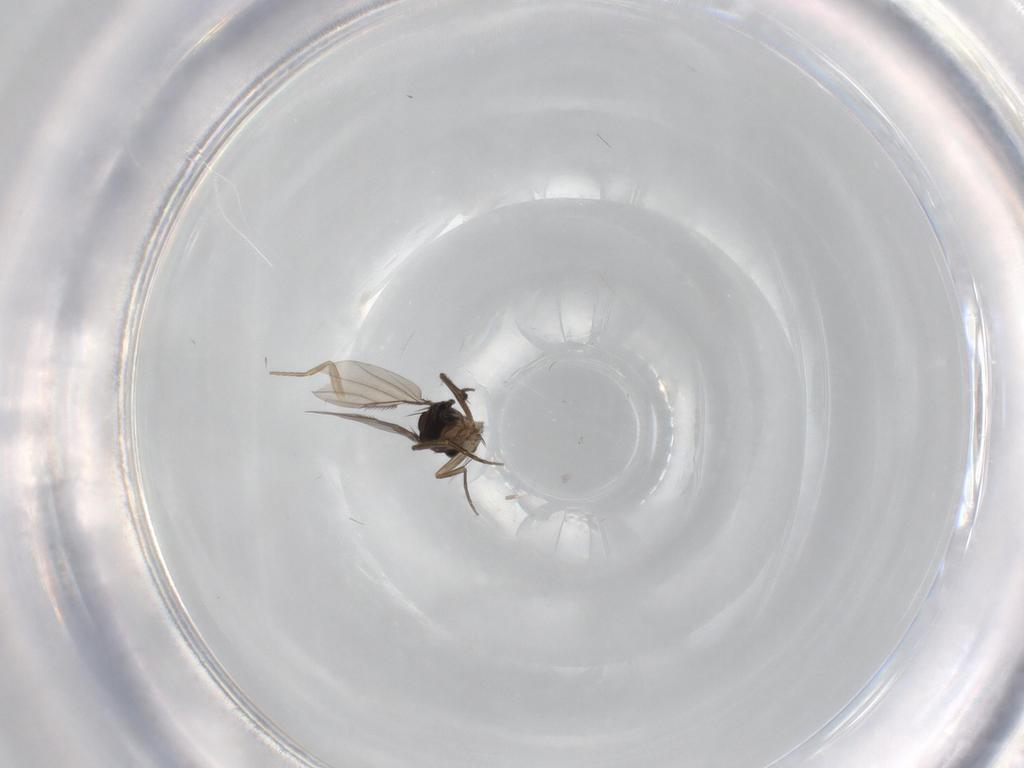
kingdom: Animalia
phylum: Arthropoda
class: Insecta
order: Diptera
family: Phoridae
